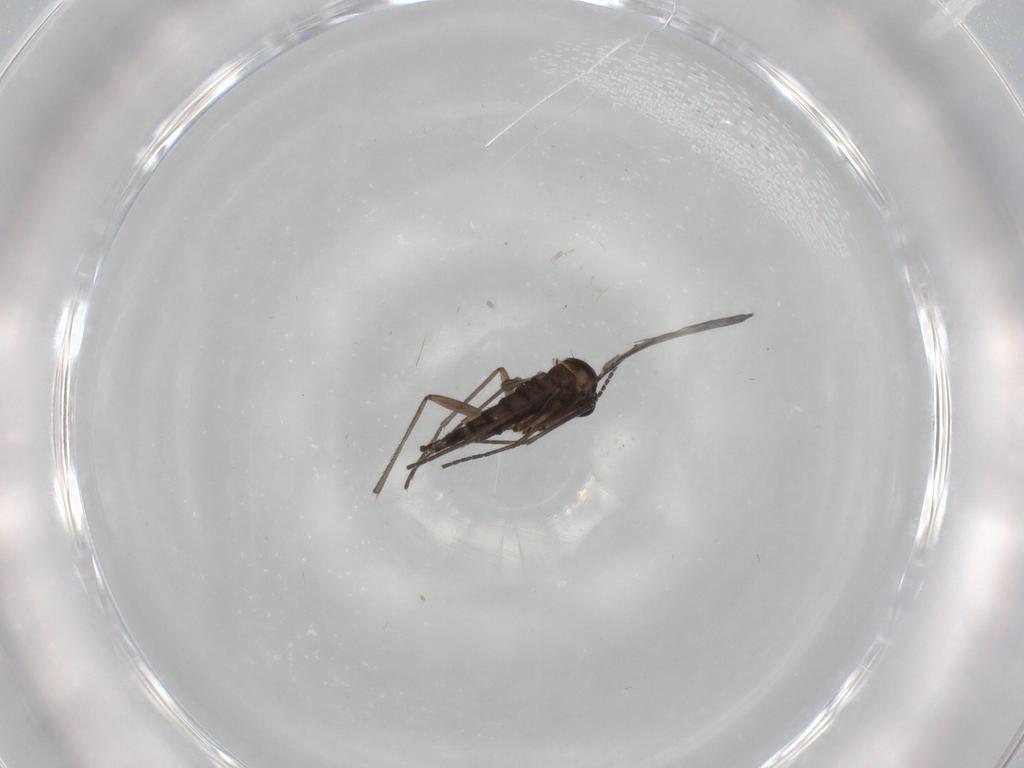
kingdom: Animalia
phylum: Arthropoda
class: Insecta
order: Diptera
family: Sciaridae
